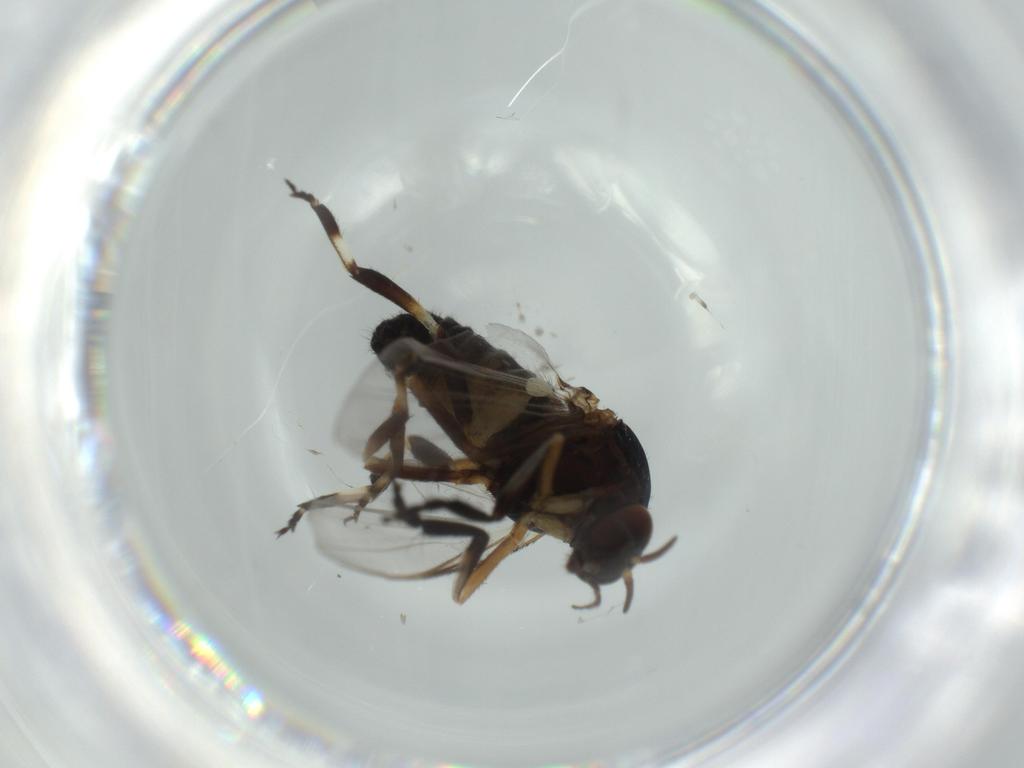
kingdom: Animalia
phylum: Arthropoda
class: Insecta
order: Diptera
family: Phoridae
